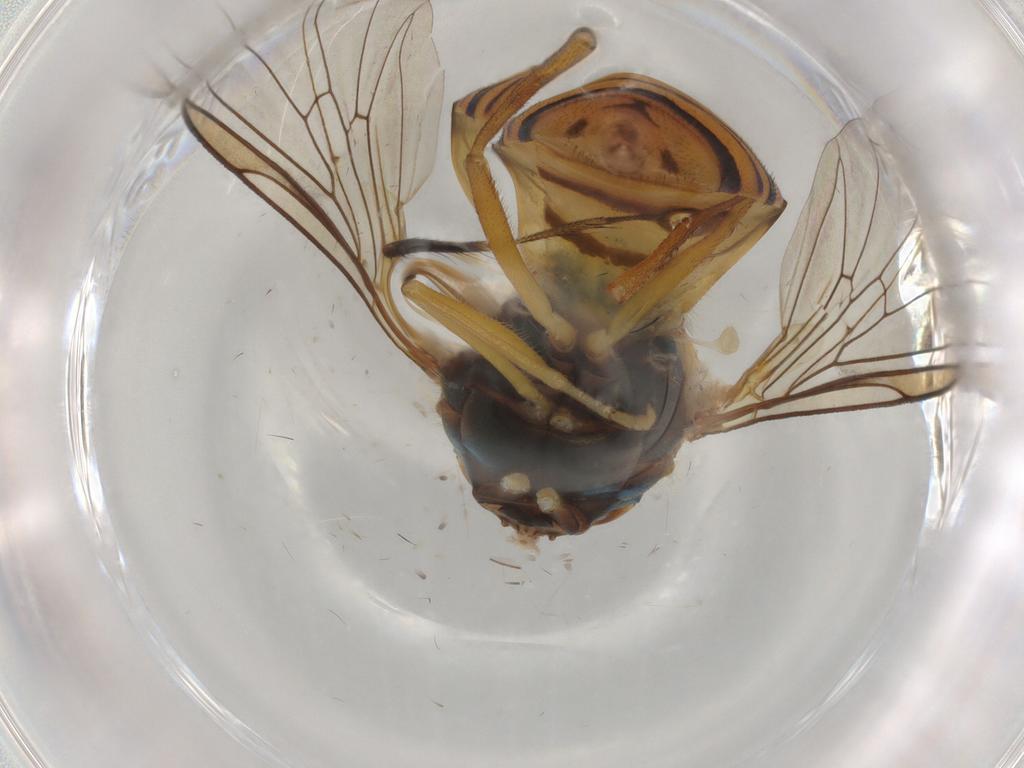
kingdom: Animalia
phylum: Arthropoda
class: Insecta
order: Diptera
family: Syrphidae
